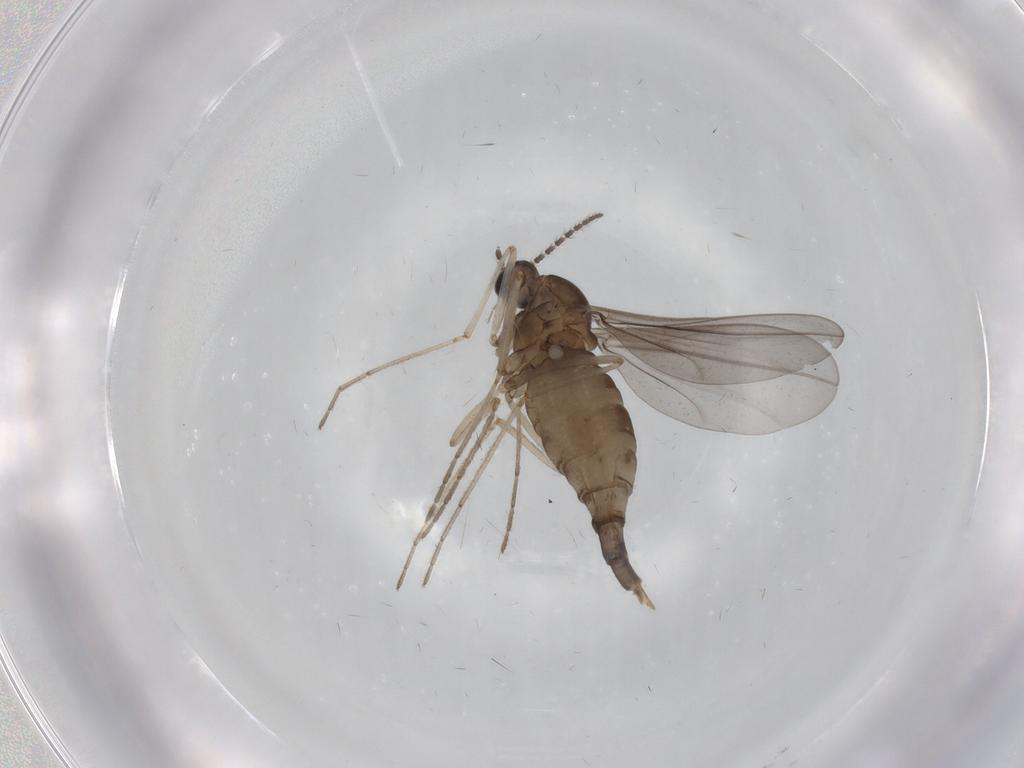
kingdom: Animalia
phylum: Arthropoda
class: Insecta
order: Diptera
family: Cecidomyiidae
